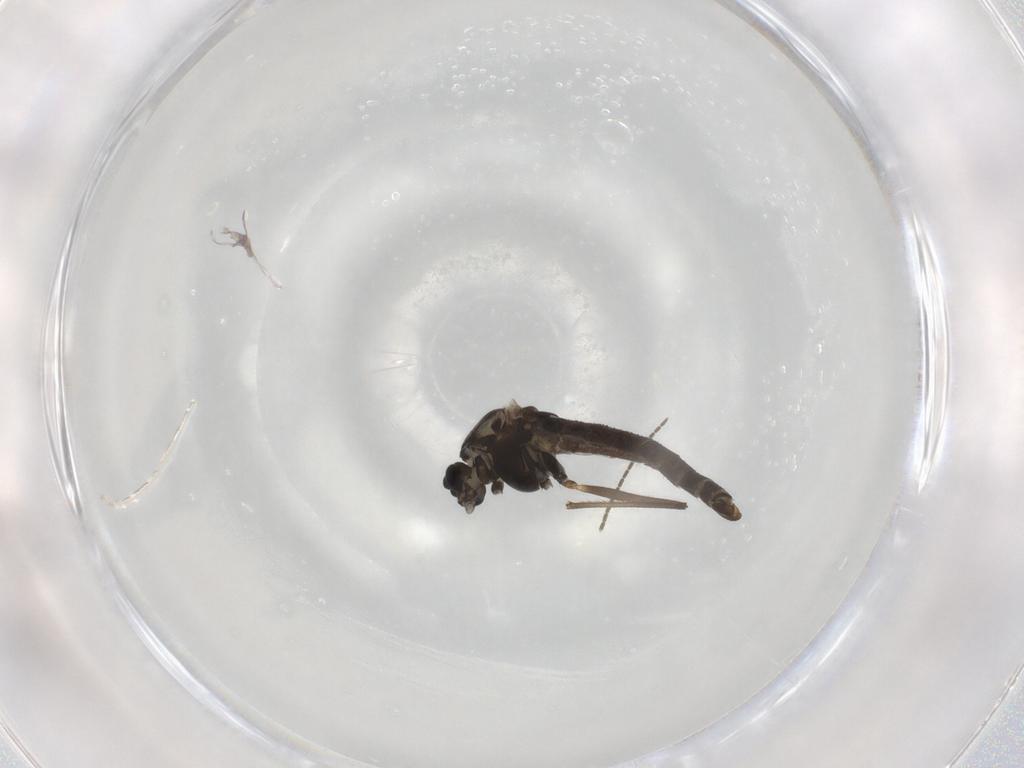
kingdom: Animalia
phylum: Arthropoda
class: Insecta
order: Diptera
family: Chironomidae
